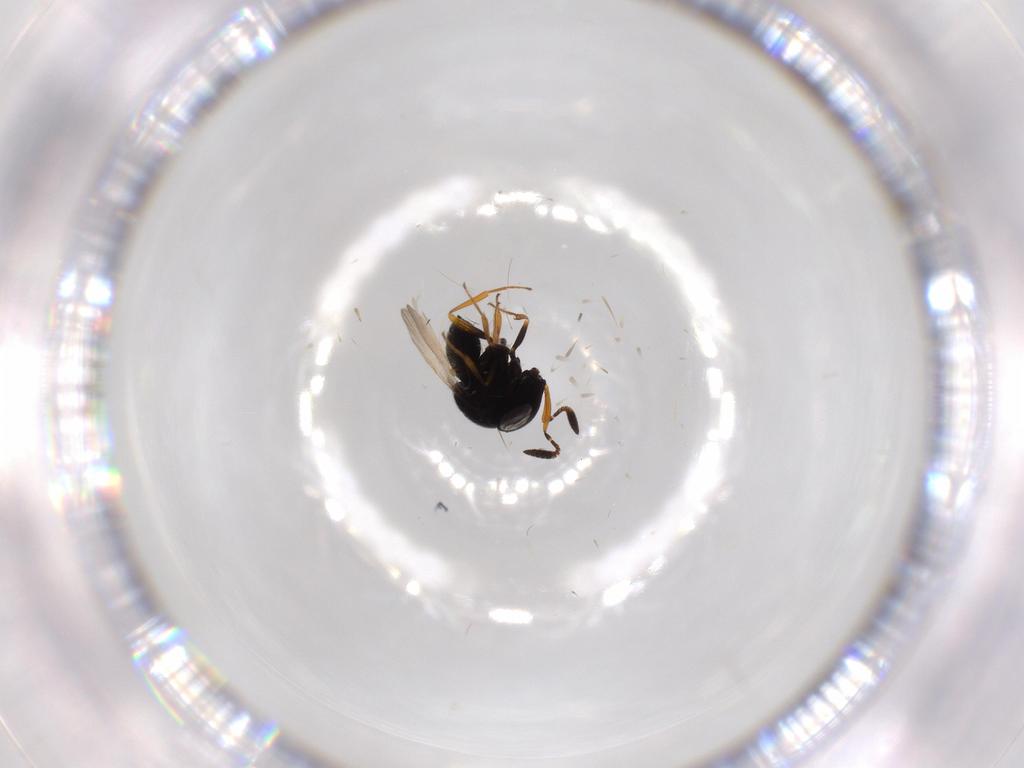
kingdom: Animalia
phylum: Arthropoda
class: Insecta
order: Hymenoptera
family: Scelionidae
